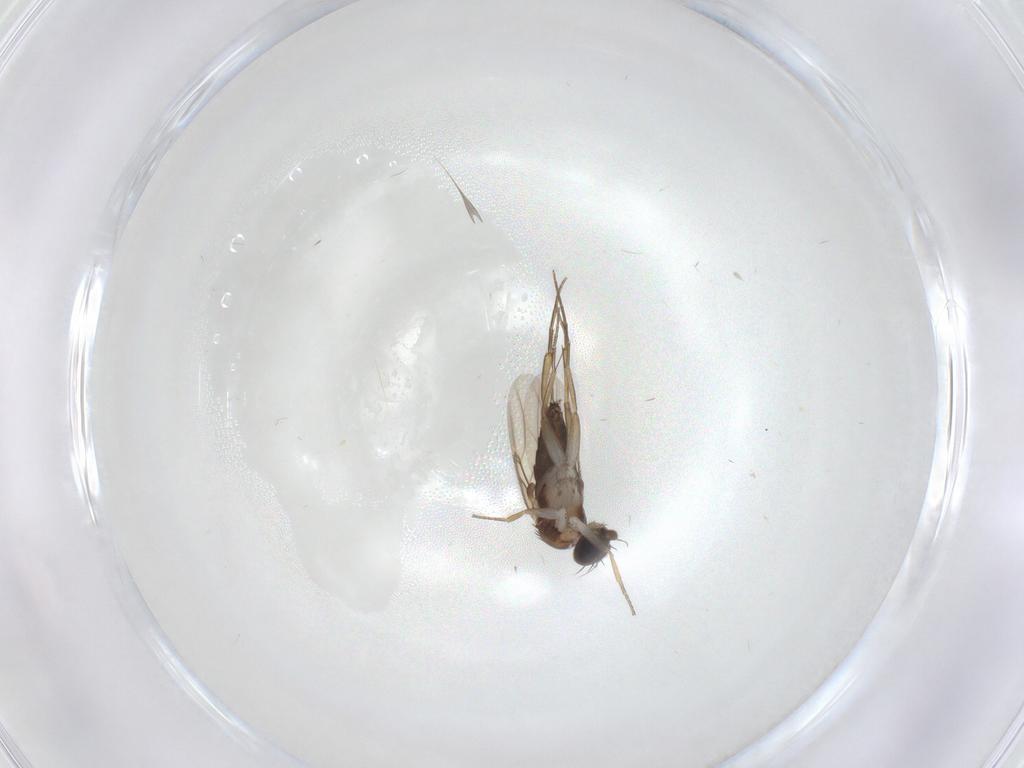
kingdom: Animalia
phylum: Arthropoda
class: Insecta
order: Diptera
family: Phoridae
